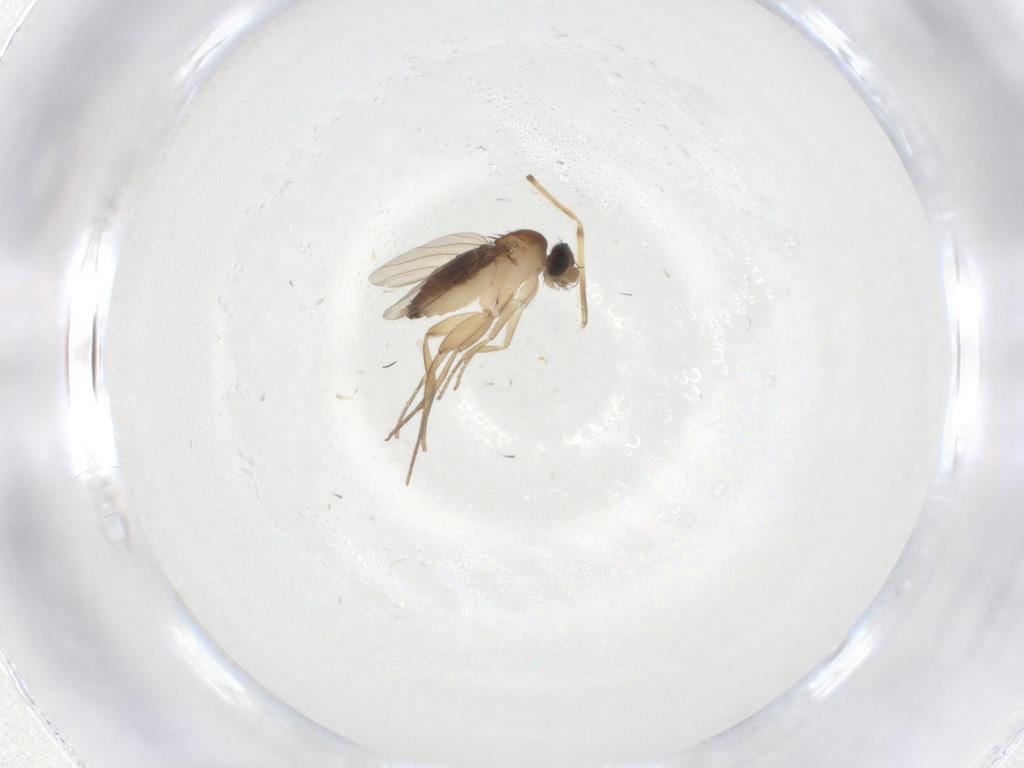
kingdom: Animalia
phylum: Arthropoda
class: Insecta
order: Diptera
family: Phoridae
